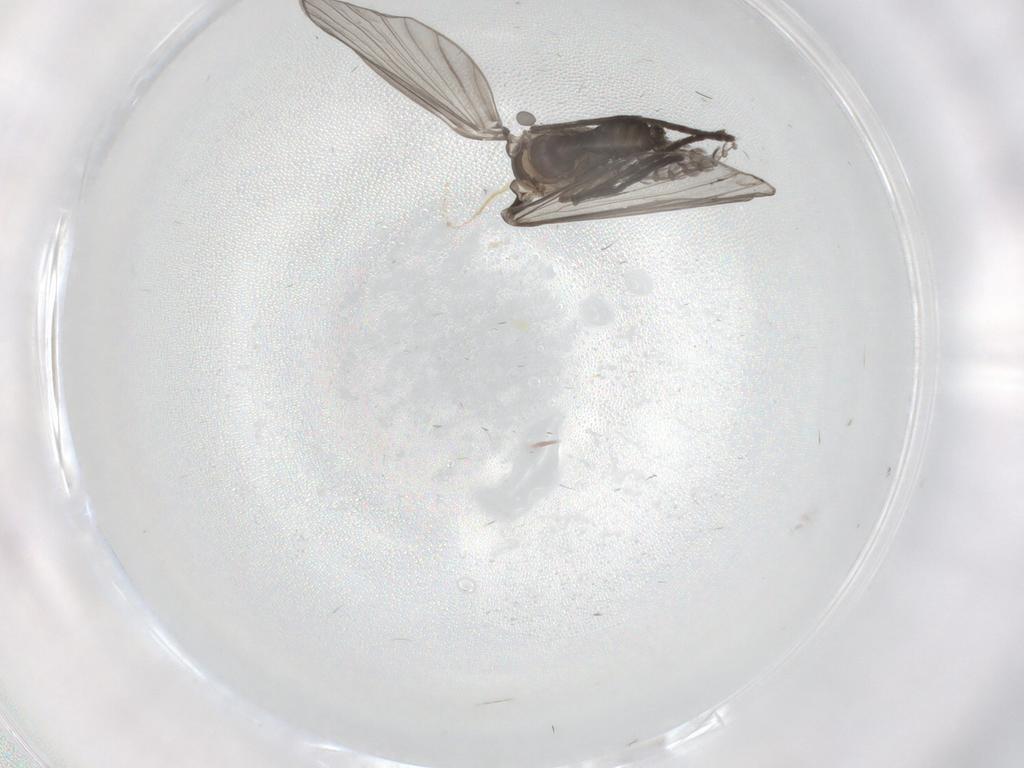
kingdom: Animalia
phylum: Arthropoda
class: Insecta
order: Diptera
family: Psychodidae
